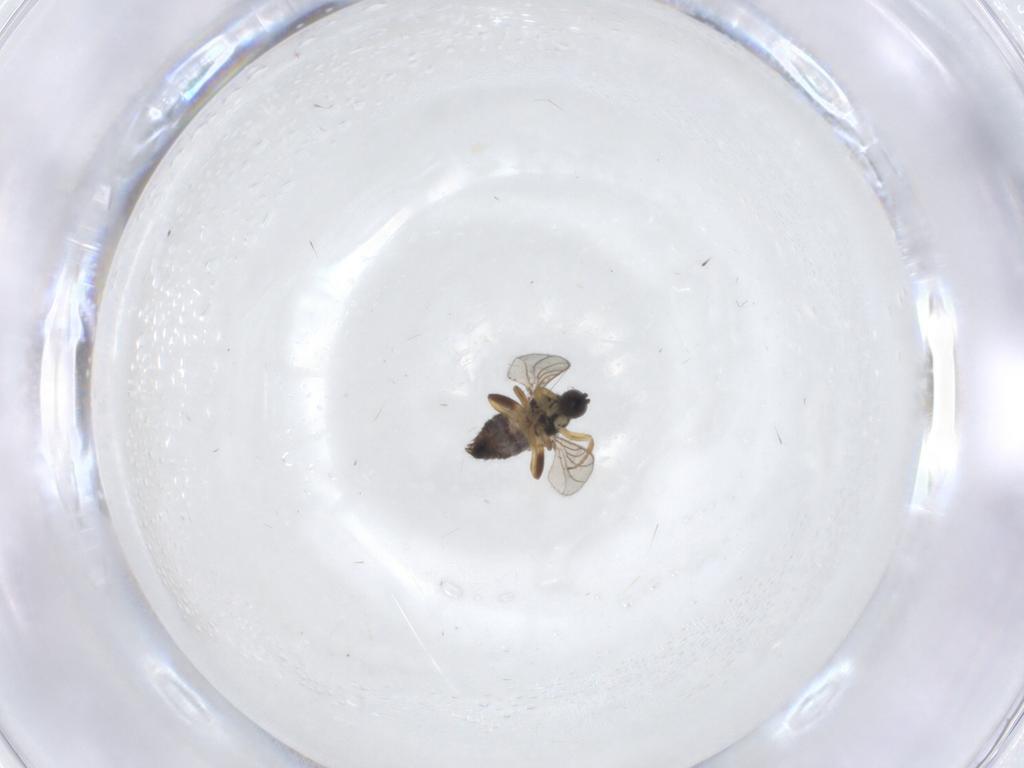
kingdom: Animalia
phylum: Arthropoda
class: Insecta
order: Diptera
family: Hybotidae
